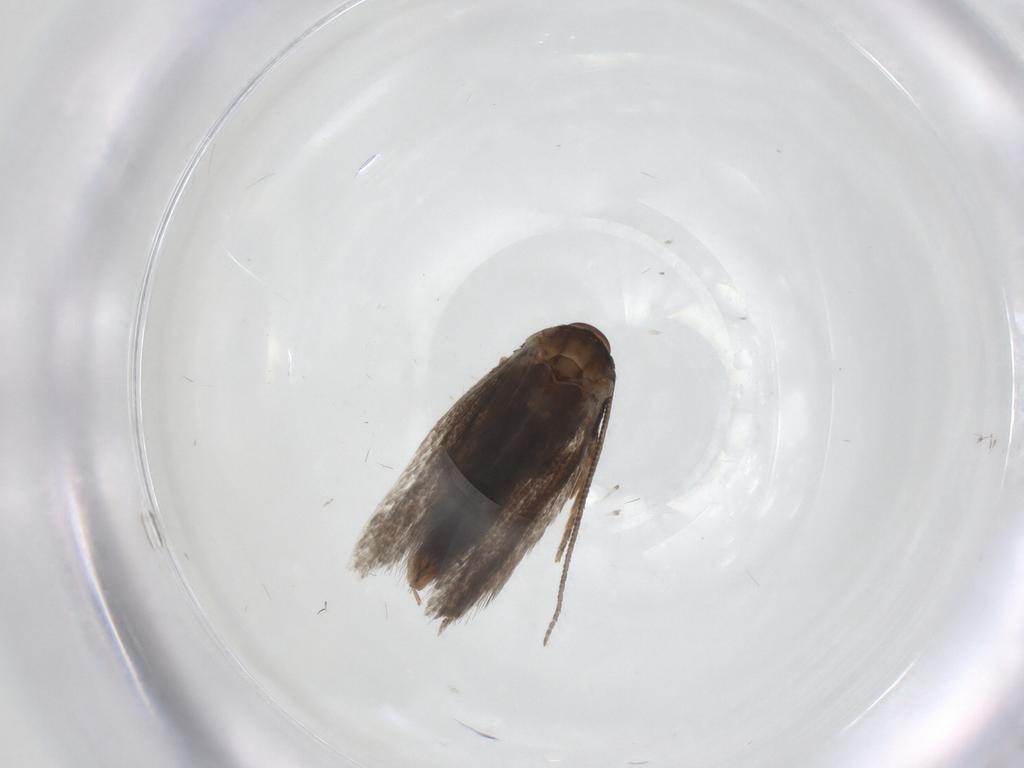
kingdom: Animalia
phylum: Arthropoda
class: Insecta
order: Lepidoptera
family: Elachistidae
